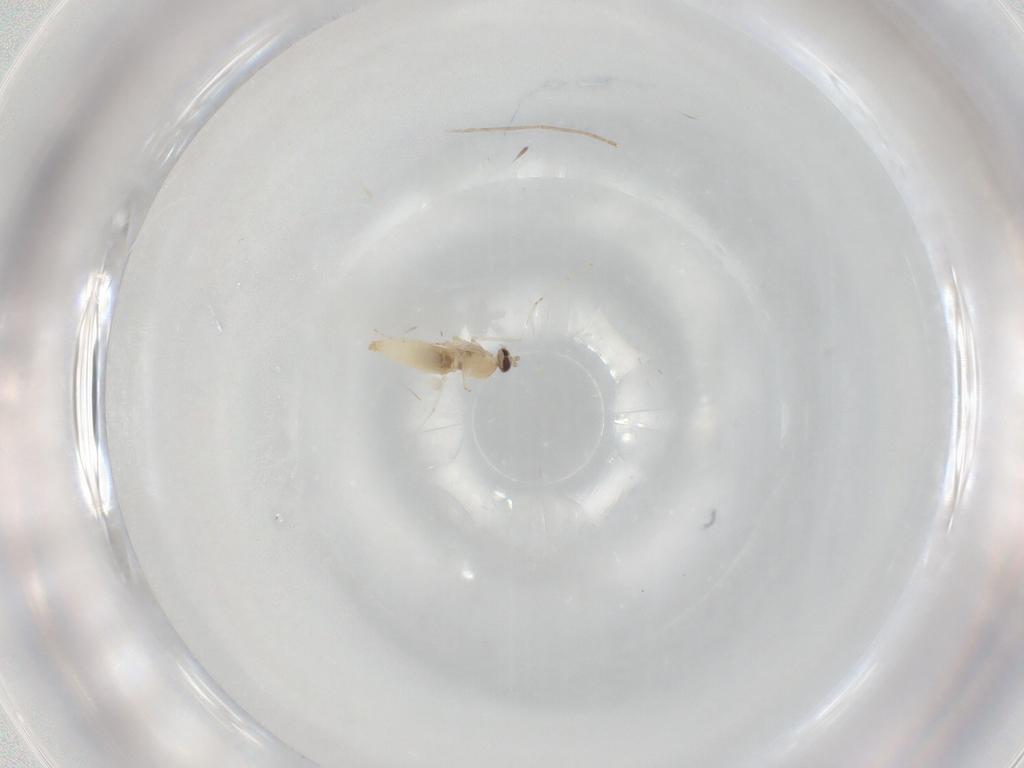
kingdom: Animalia
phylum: Arthropoda
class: Insecta
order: Diptera
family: Cecidomyiidae
